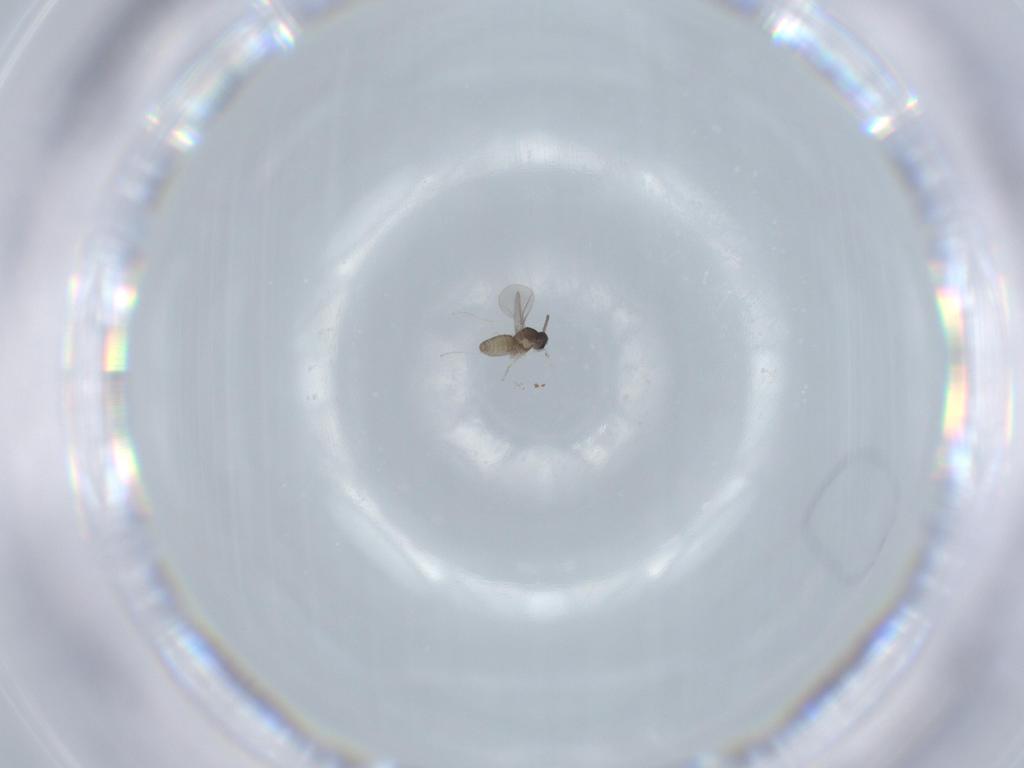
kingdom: Animalia
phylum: Arthropoda
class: Insecta
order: Diptera
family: Cecidomyiidae
